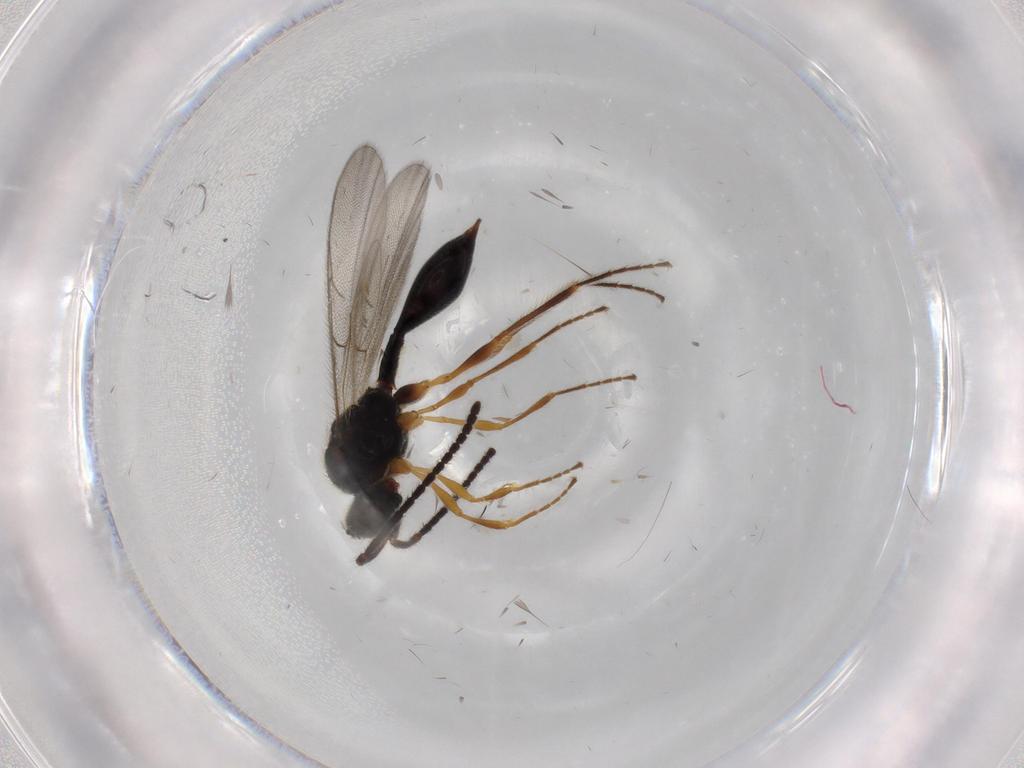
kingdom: Animalia
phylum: Arthropoda
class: Insecta
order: Hymenoptera
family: Diapriidae
